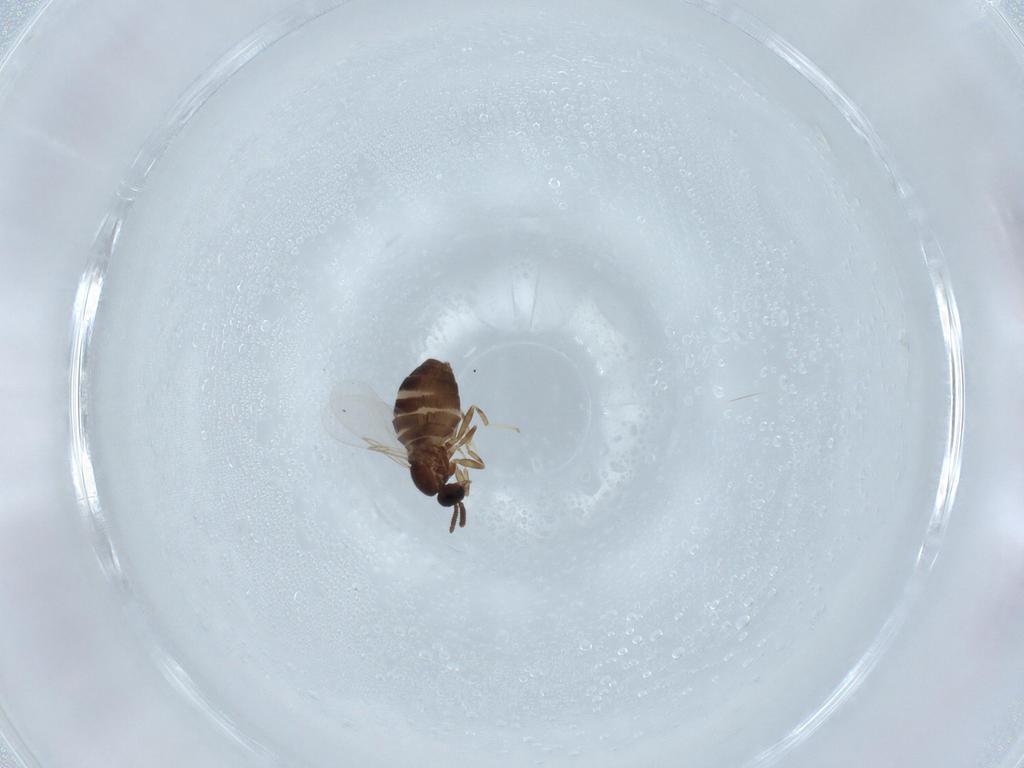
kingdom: Animalia
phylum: Arthropoda
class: Insecta
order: Diptera
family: Scatopsidae
